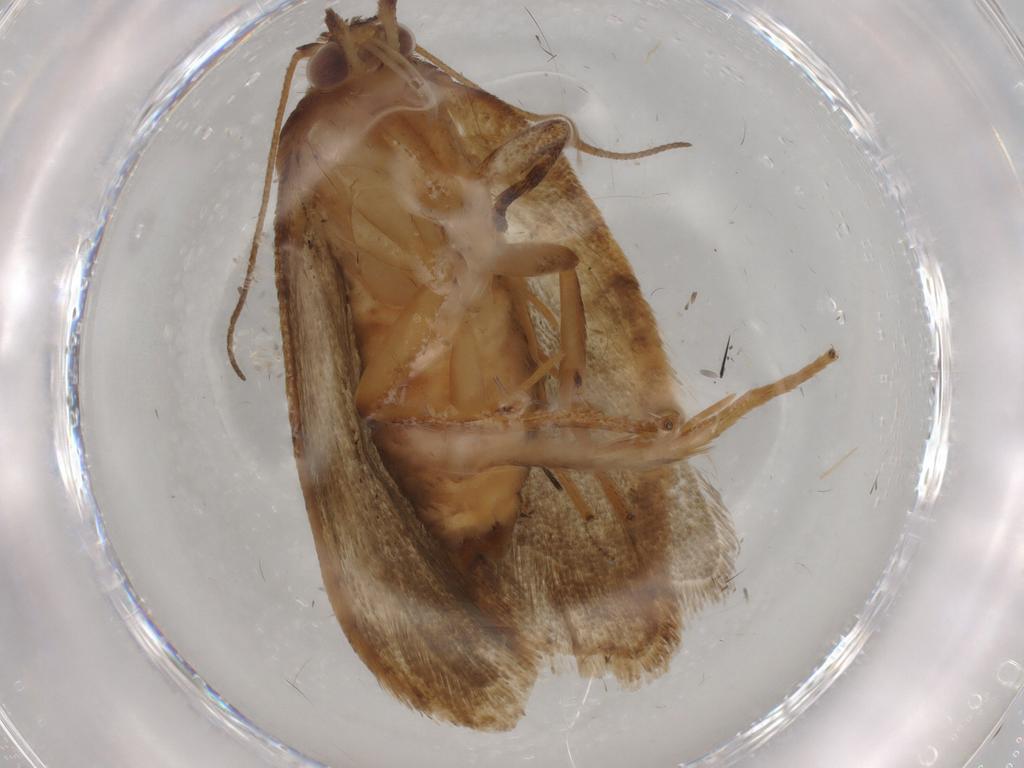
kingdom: Animalia
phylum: Arthropoda
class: Insecta
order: Lepidoptera
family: Tortricidae
